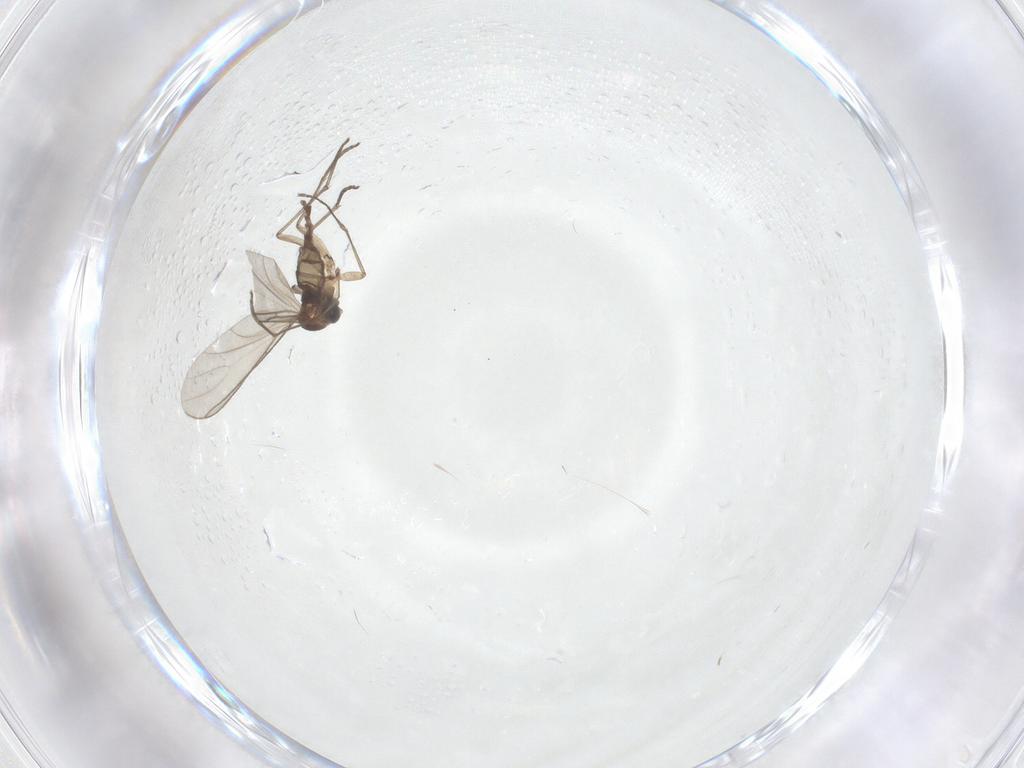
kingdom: Animalia
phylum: Arthropoda
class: Insecta
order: Diptera
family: Sciaridae
